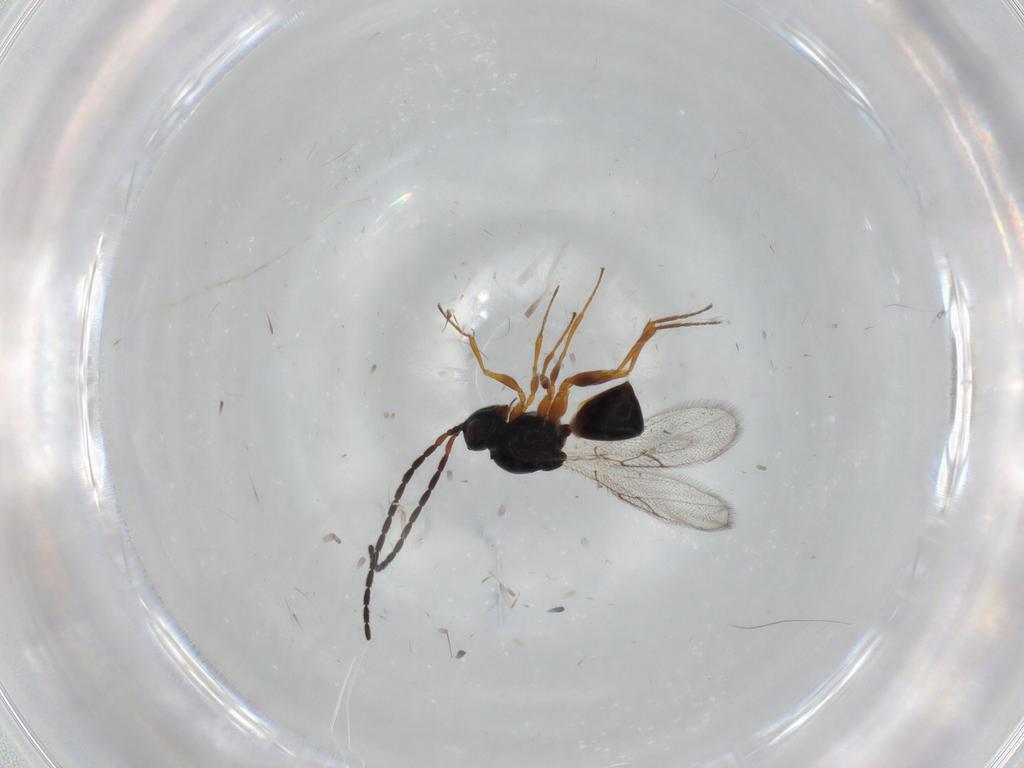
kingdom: Animalia
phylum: Arthropoda
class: Insecta
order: Hymenoptera
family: Figitidae
